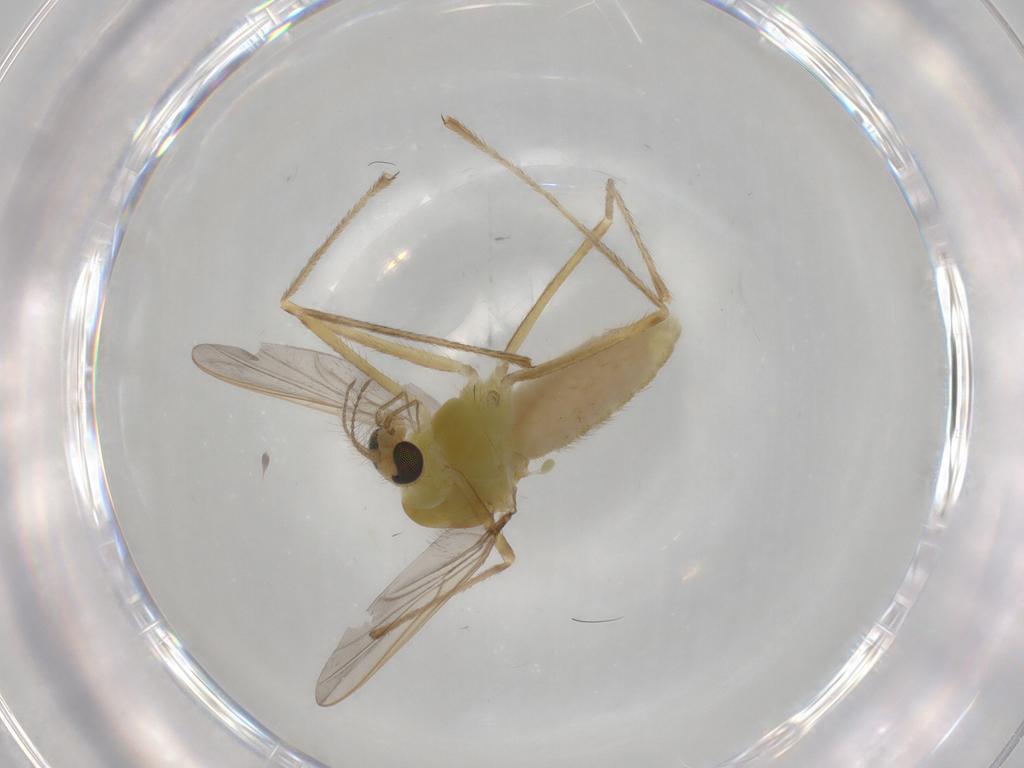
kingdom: Animalia
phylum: Arthropoda
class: Insecta
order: Diptera
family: Chironomidae
